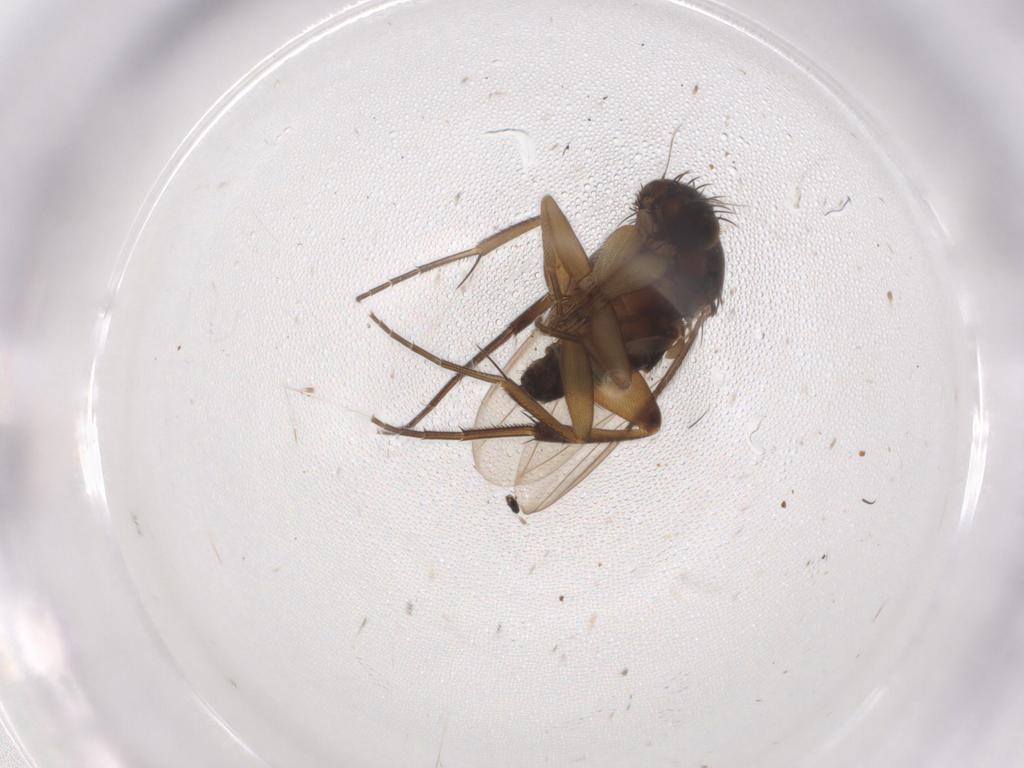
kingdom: Animalia
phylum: Arthropoda
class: Insecta
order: Diptera
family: Phoridae
